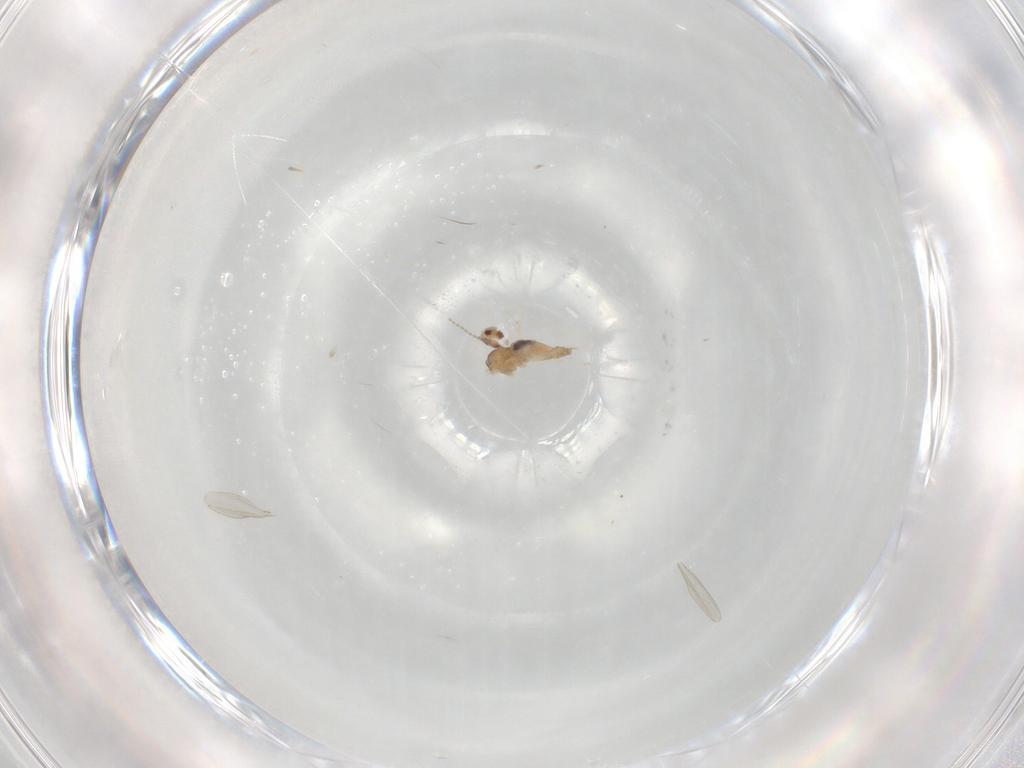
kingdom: Animalia
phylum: Arthropoda
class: Insecta
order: Diptera
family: Cecidomyiidae
